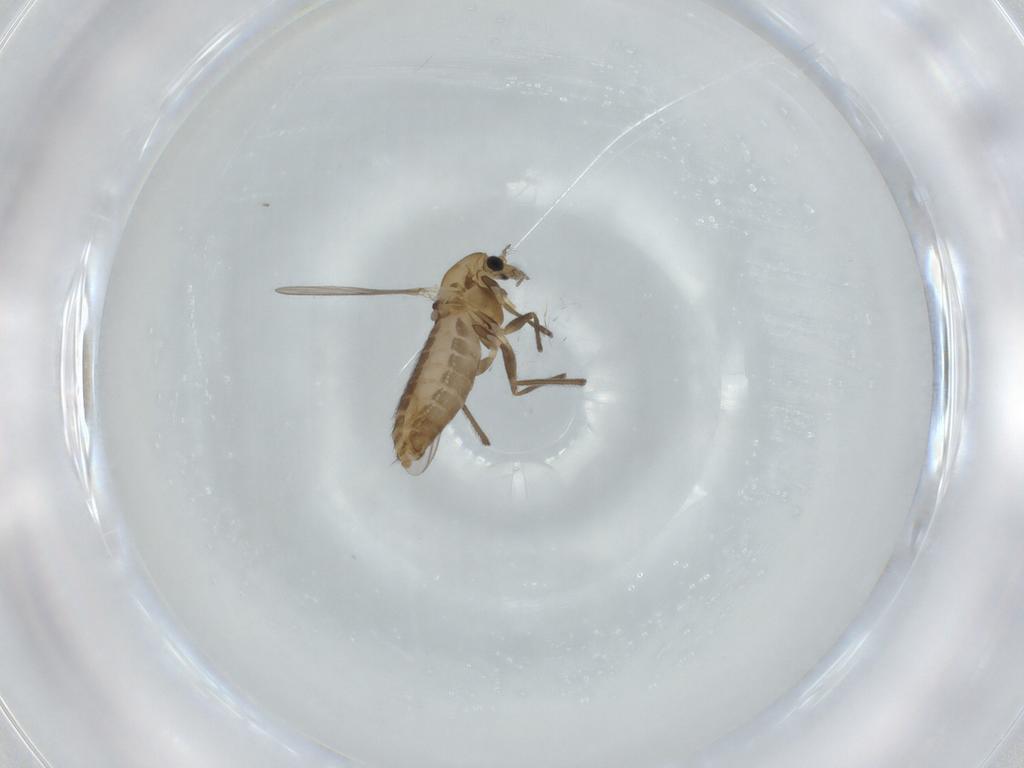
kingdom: Animalia
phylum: Arthropoda
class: Insecta
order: Diptera
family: Chironomidae
